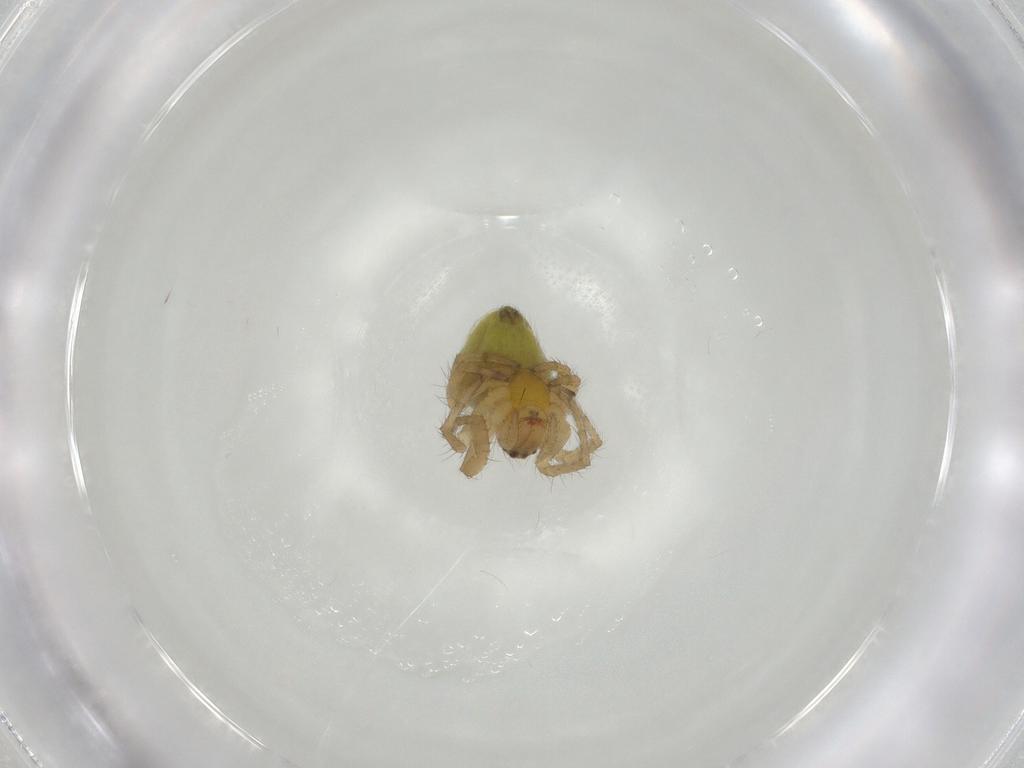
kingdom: Animalia
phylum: Arthropoda
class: Arachnida
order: Araneae
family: Araneidae
